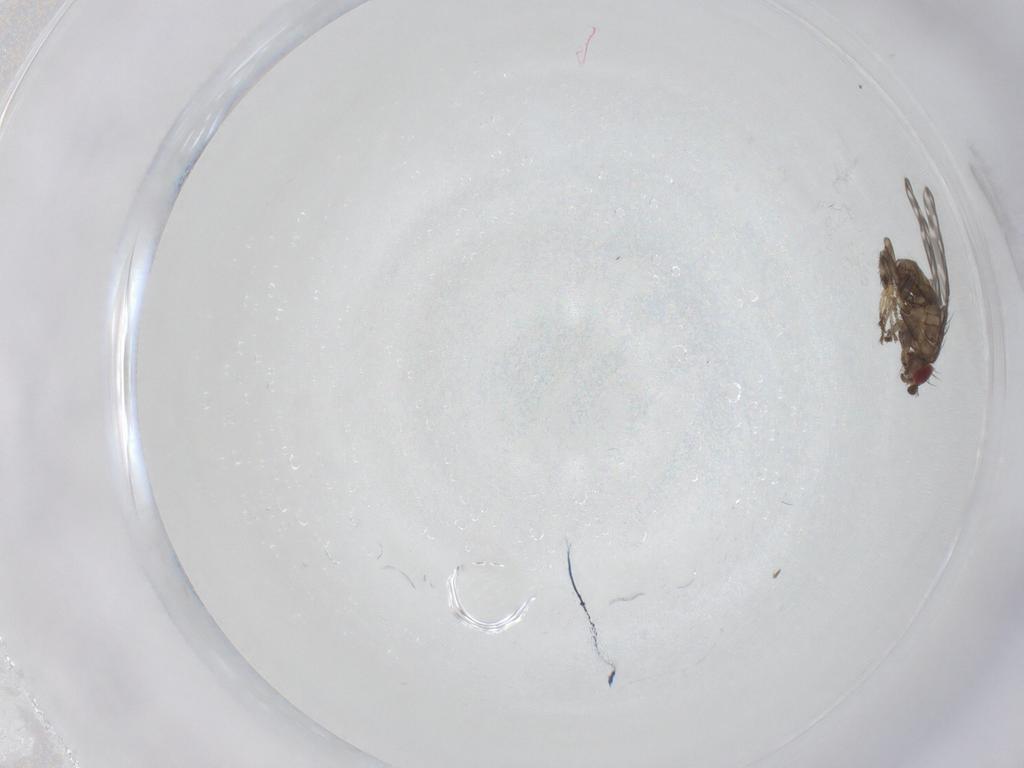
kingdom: Animalia
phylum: Arthropoda
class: Insecta
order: Diptera
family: Sphaeroceridae
